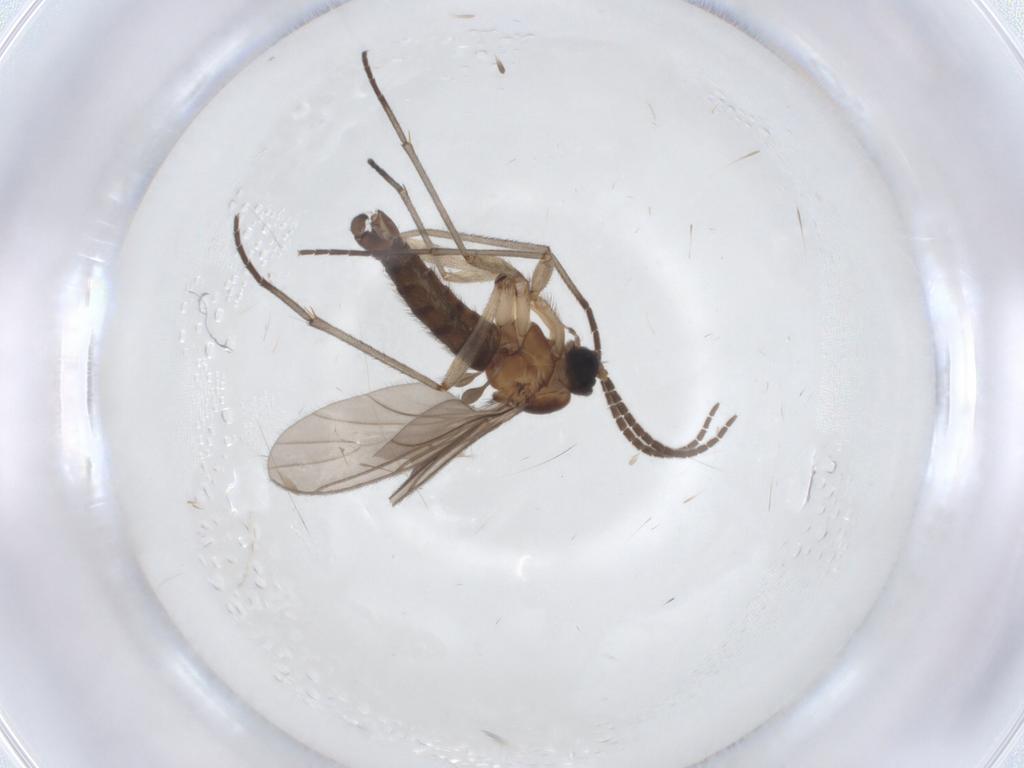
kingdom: Animalia
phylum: Arthropoda
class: Insecta
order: Diptera
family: Sciaridae
